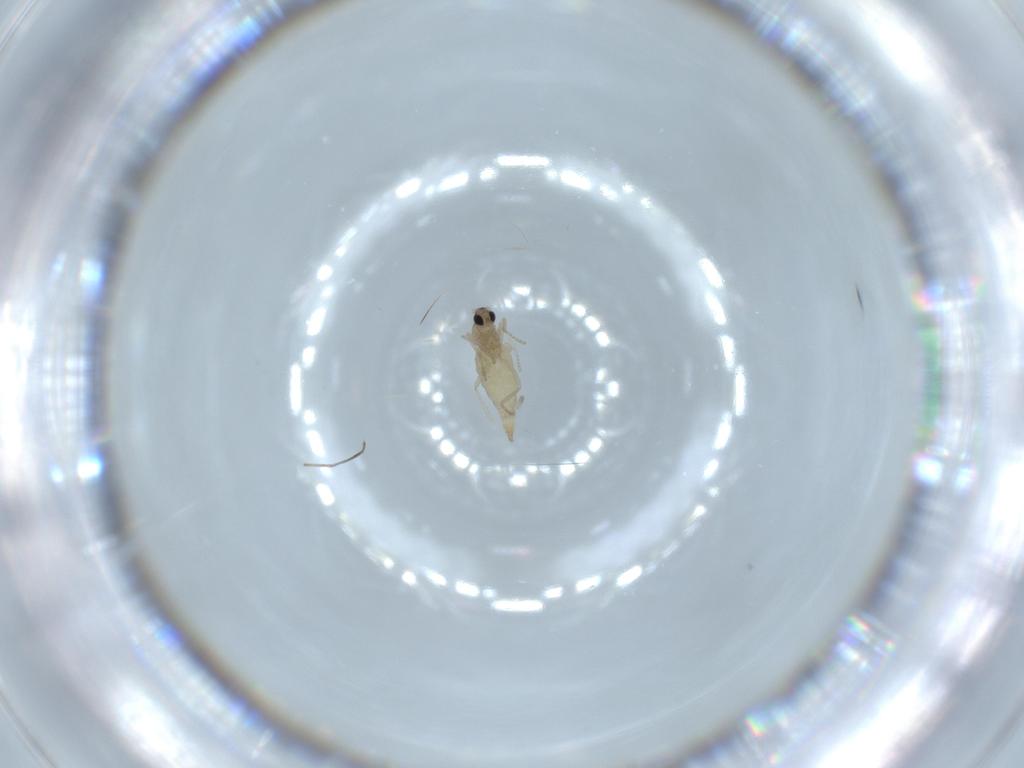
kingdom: Animalia
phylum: Arthropoda
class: Insecta
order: Diptera
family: Cecidomyiidae
